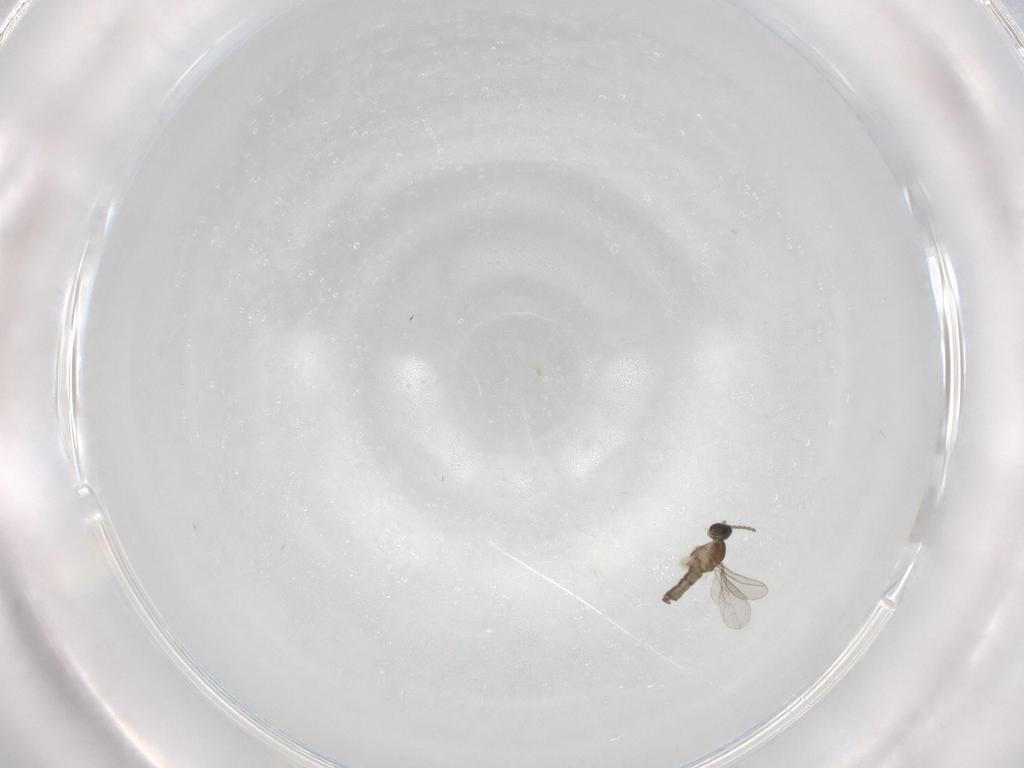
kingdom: Animalia
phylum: Arthropoda
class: Insecta
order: Diptera
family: Cecidomyiidae
